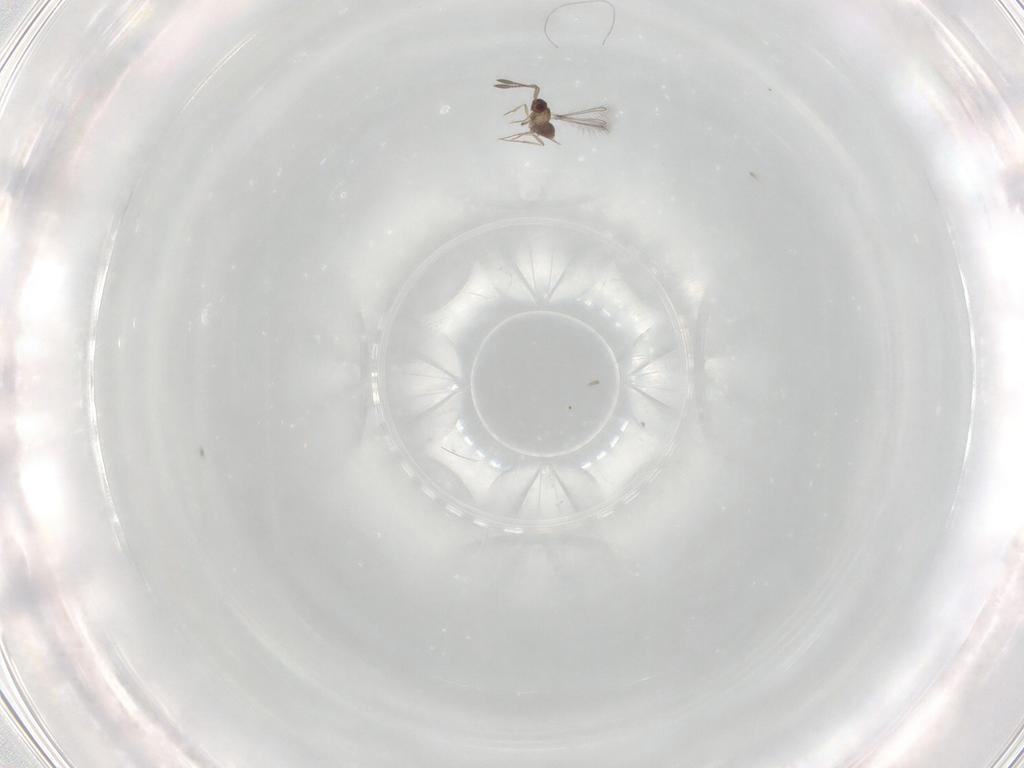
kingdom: Animalia
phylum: Arthropoda
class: Insecta
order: Hymenoptera
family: Mymaridae
